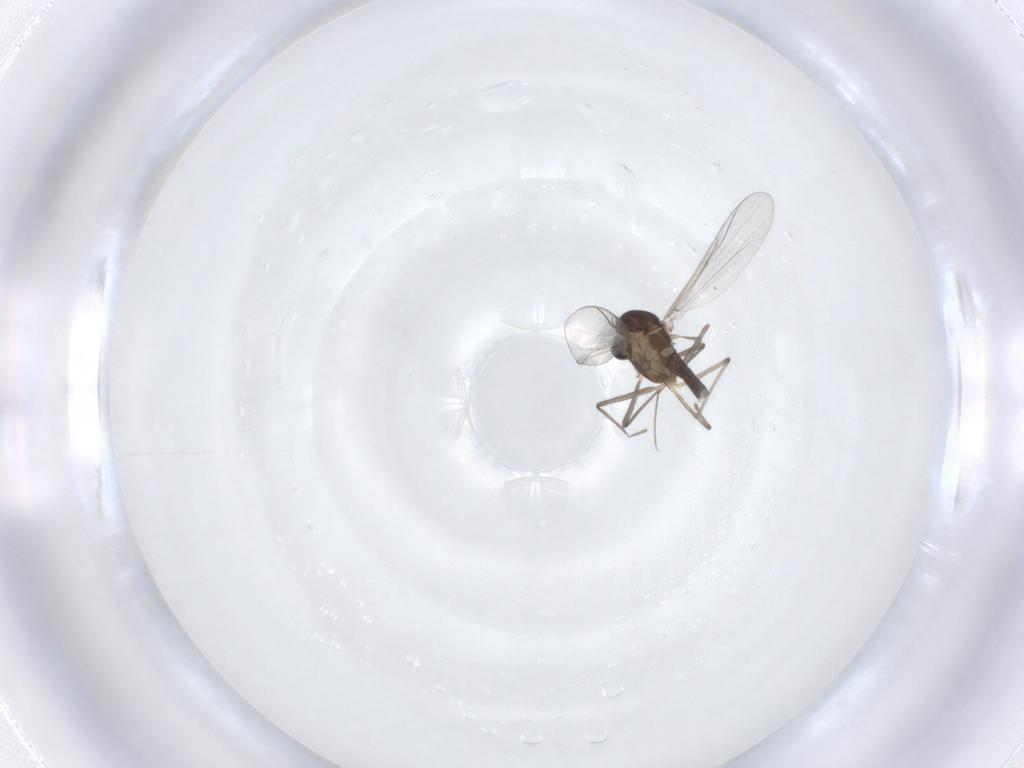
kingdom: Animalia
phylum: Arthropoda
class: Insecta
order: Diptera
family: Chironomidae
